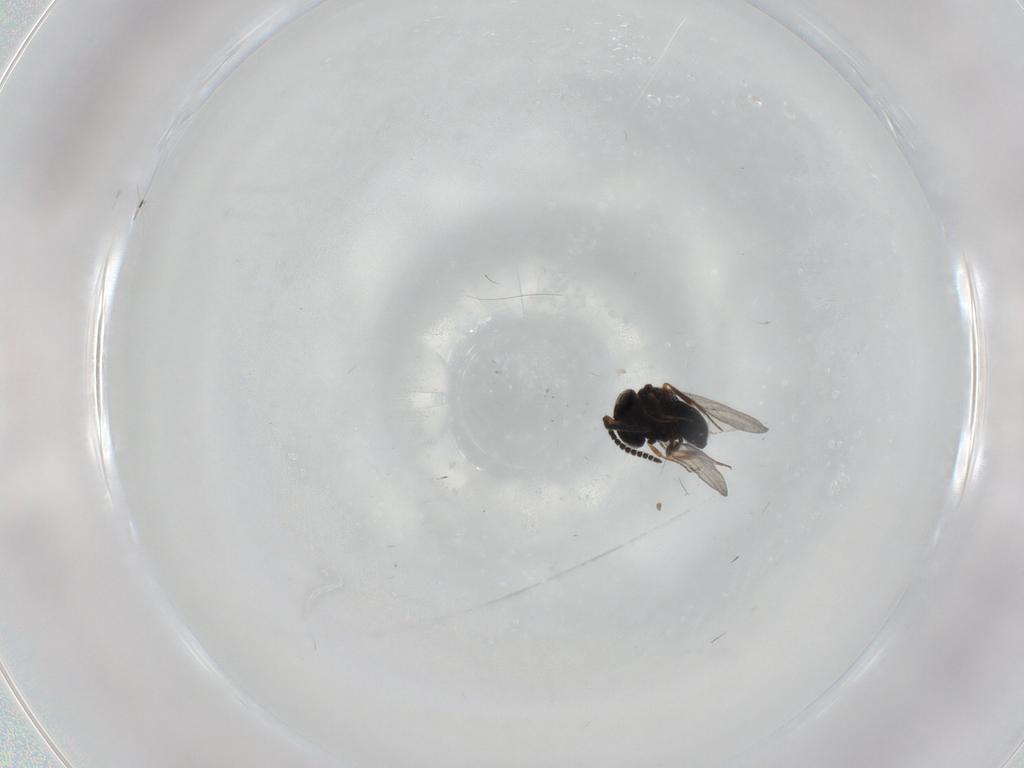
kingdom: Animalia
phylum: Arthropoda
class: Insecta
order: Hymenoptera
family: Scelionidae
